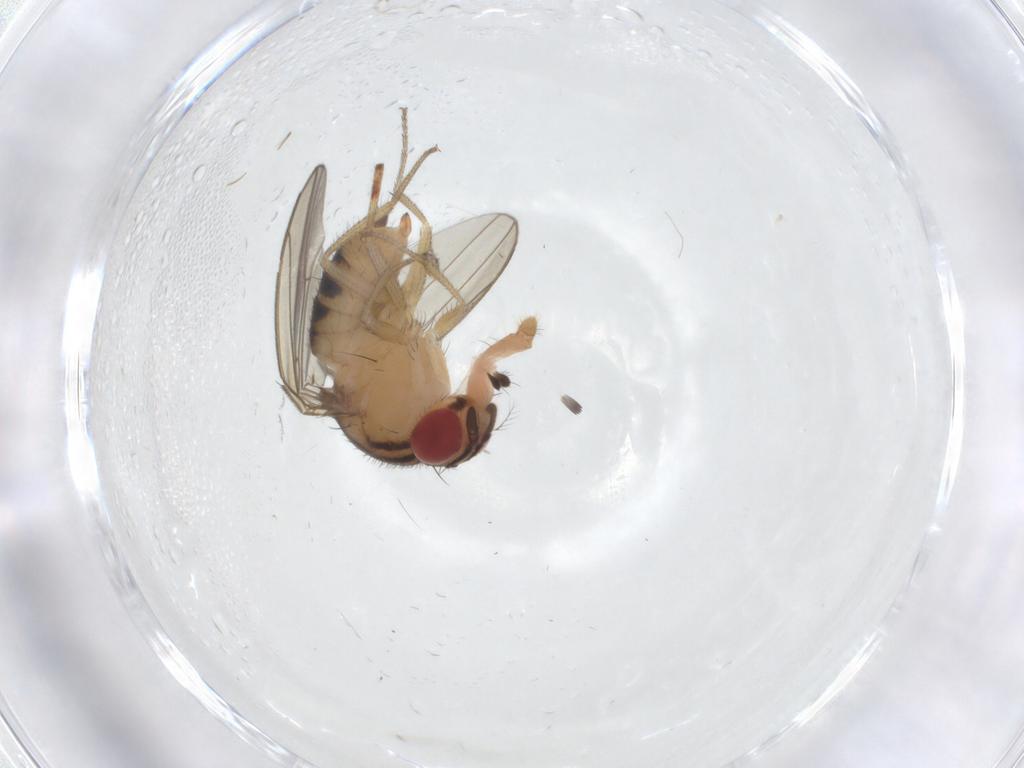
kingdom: Animalia
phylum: Arthropoda
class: Insecta
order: Diptera
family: Drosophilidae
